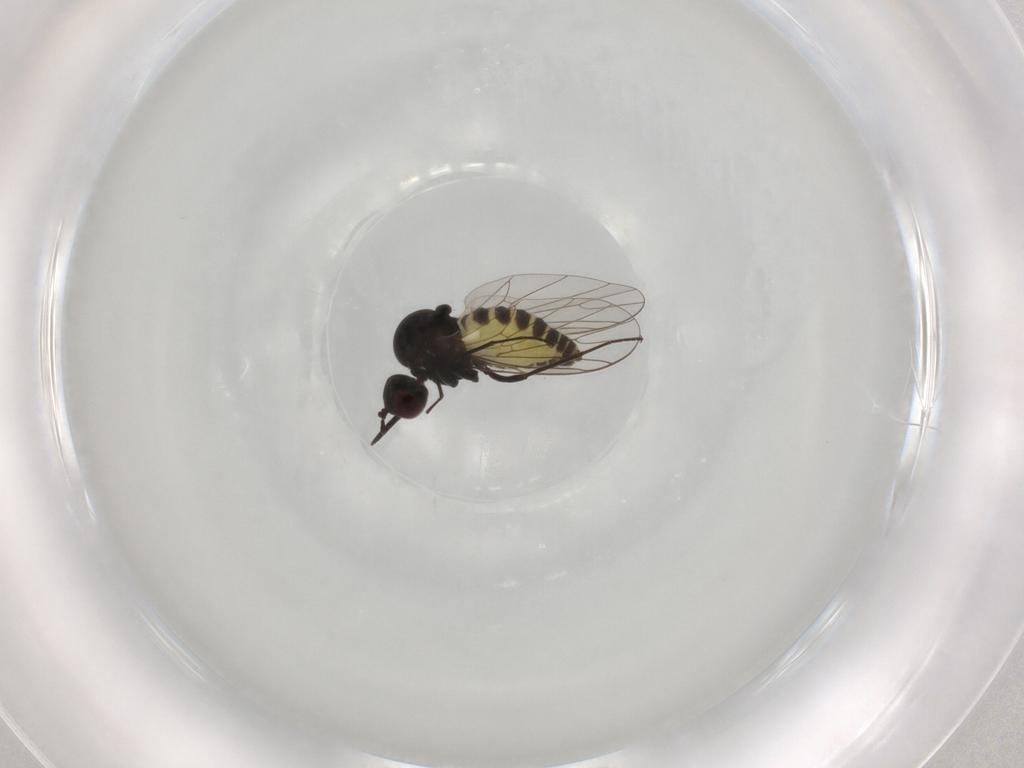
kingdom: Animalia
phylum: Arthropoda
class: Insecta
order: Diptera
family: Bombyliidae
